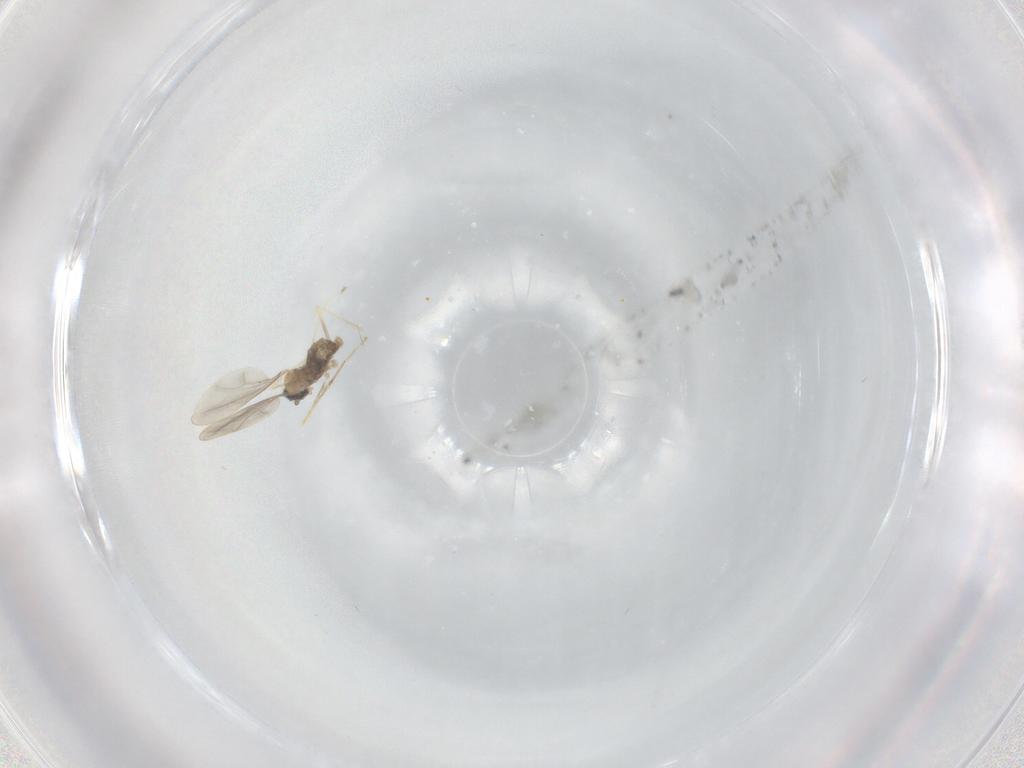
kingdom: Animalia
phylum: Arthropoda
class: Insecta
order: Diptera
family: Cecidomyiidae
